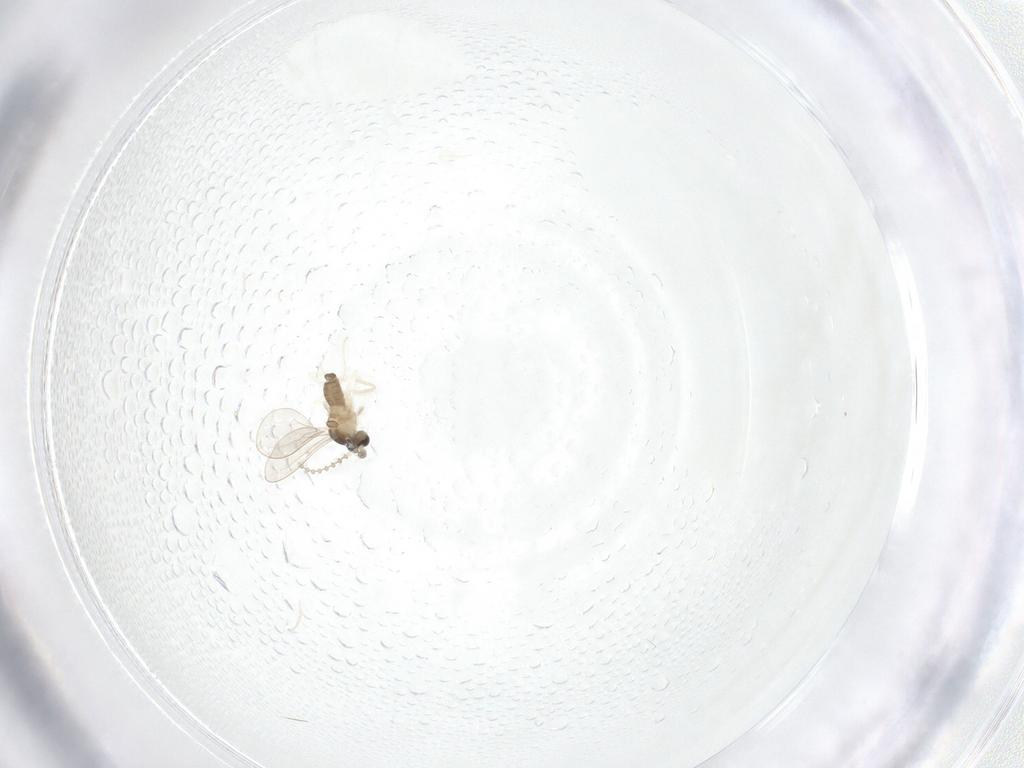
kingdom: Animalia
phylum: Arthropoda
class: Insecta
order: Diptera
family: Cecidomyiidae
